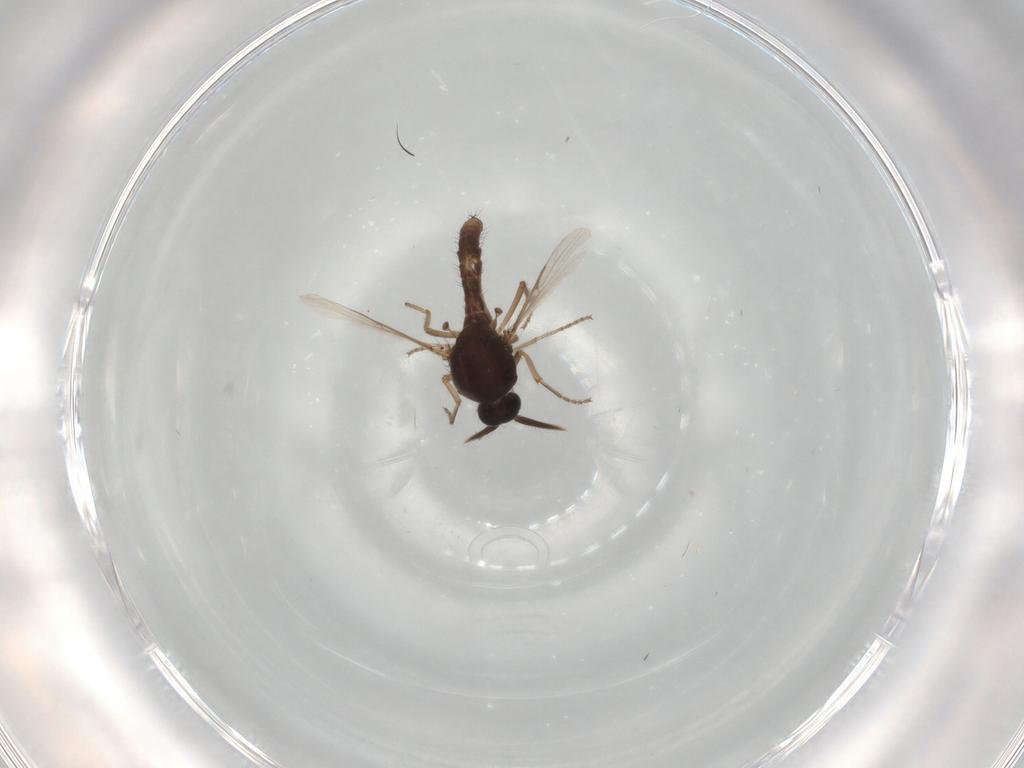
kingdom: Animalia
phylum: Arthropoda
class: Insecta
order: Diptera
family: Ceratopogonidae
